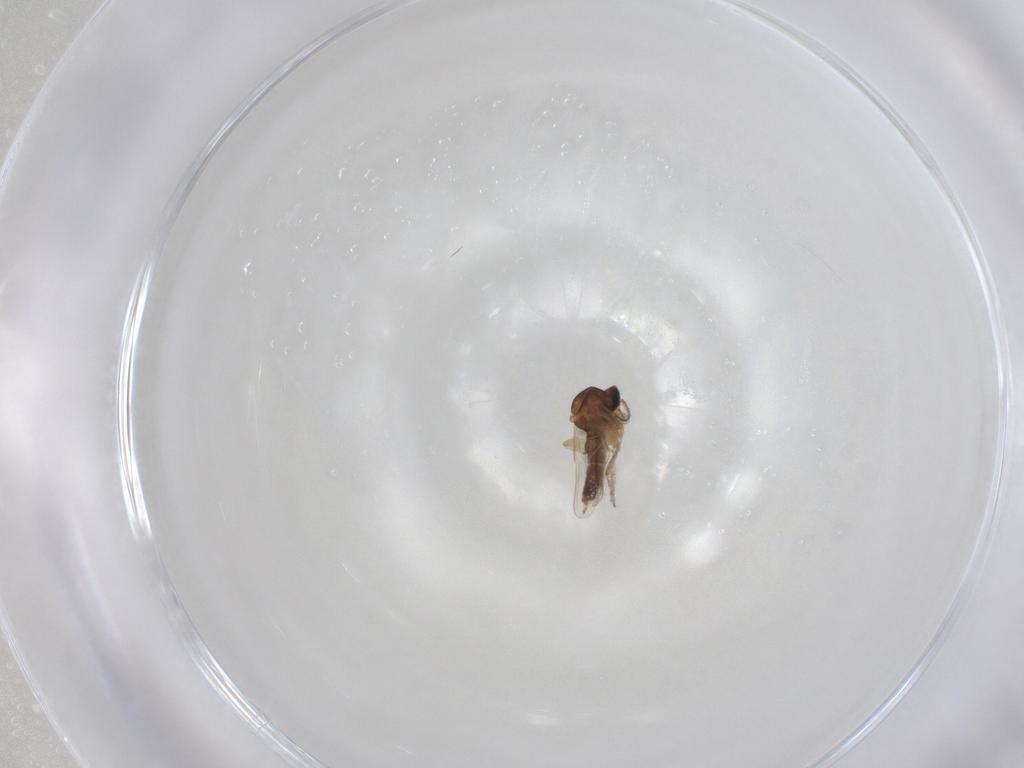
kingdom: Animalia
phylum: Arthropoda
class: Insecta
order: Diptera
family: Ceratopogonidae
